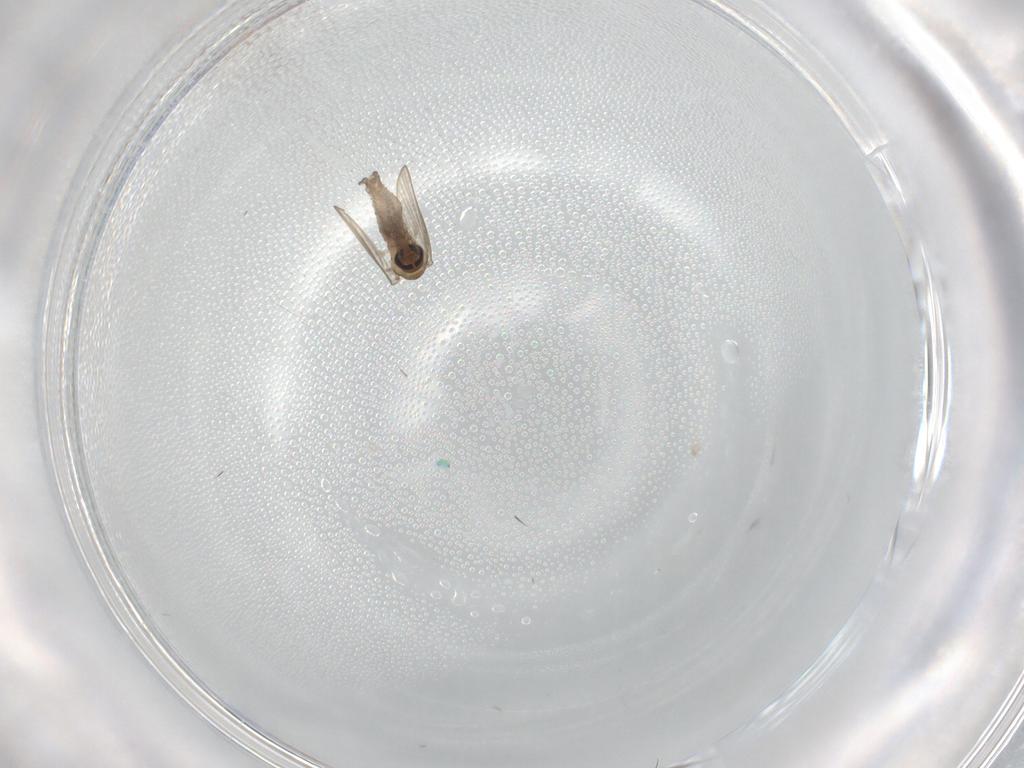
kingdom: Animalia
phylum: Arthropoda
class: Insecta
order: Diptera
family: Psychodidae
